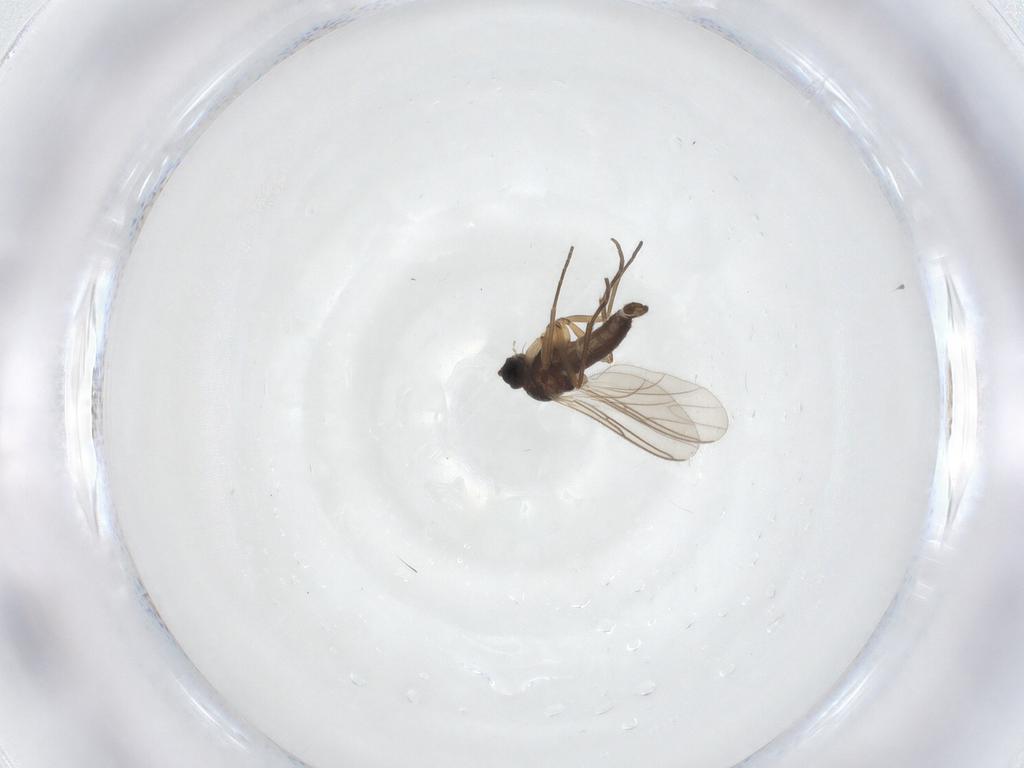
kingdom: Animalia
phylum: Arthropoda
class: Insecta
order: Diptera
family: Sciaridae
